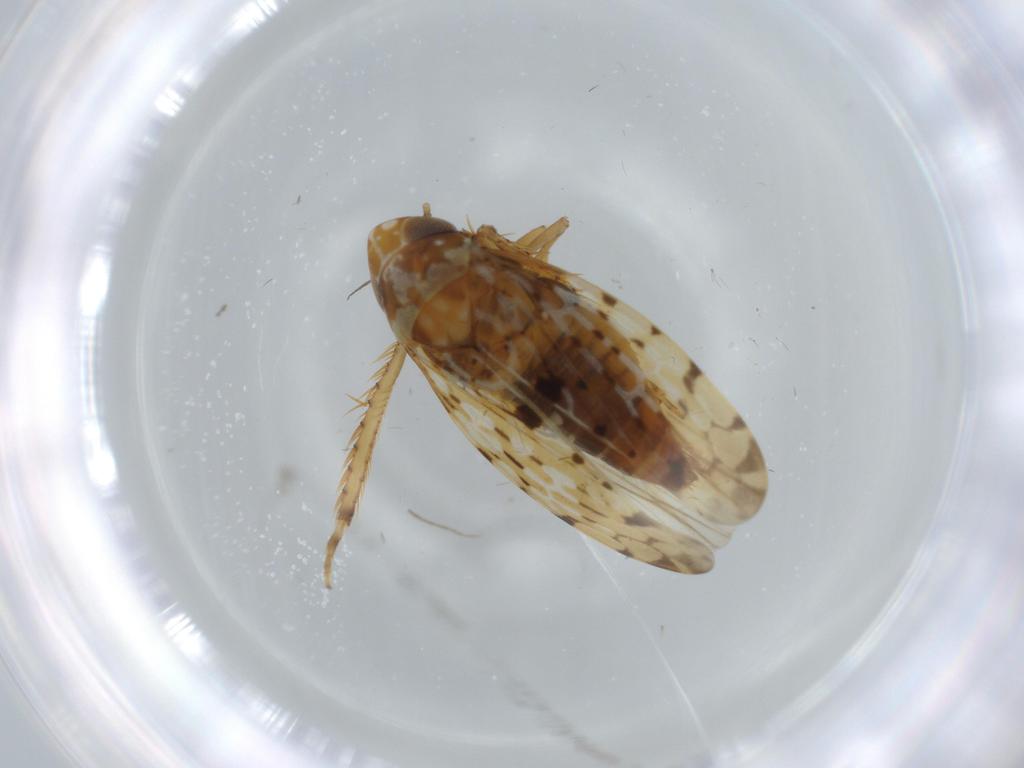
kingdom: Animalia
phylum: Arthropoda
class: Insecta
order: Hemiptera
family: Cicadellidae
